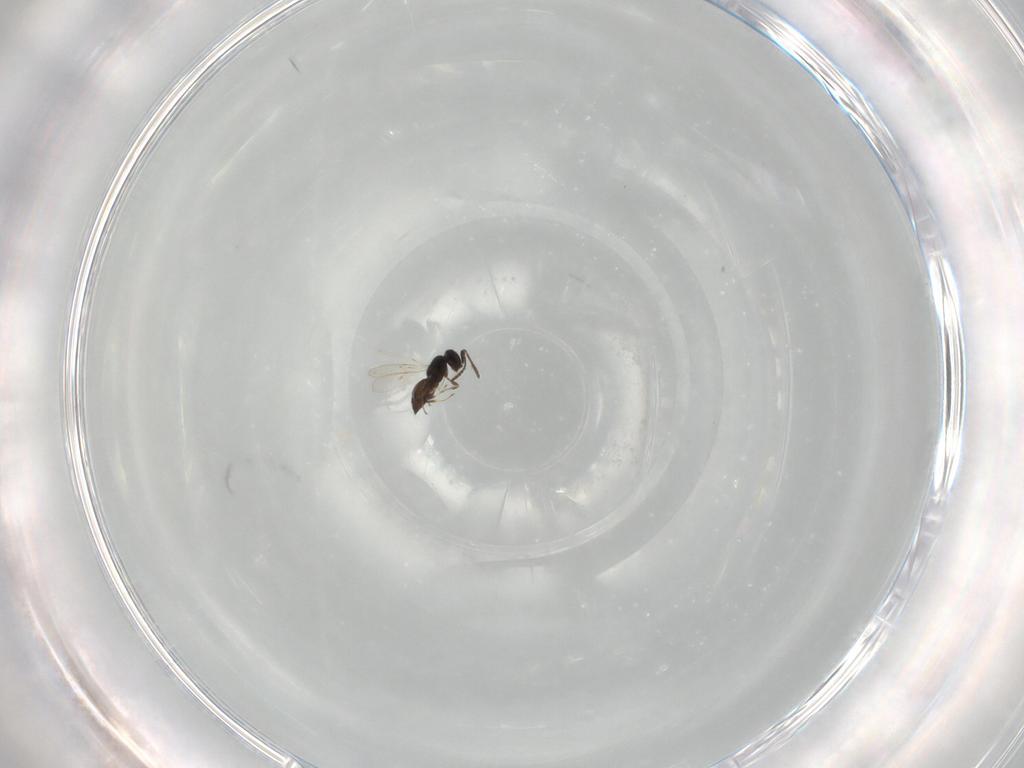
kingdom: Animalia
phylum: Arthropoda
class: Insecta
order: Hymenoptera
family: Scelionidae
